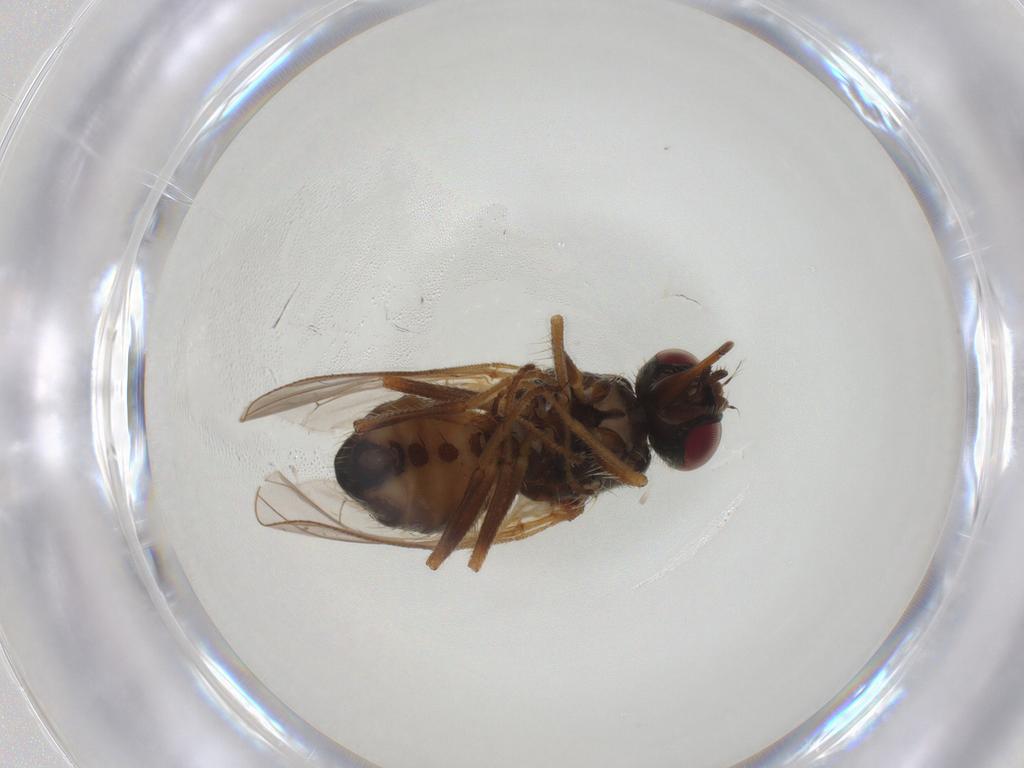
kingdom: Animalia
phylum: Arthropoda
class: Insecta
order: Diptera
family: Muscidae
